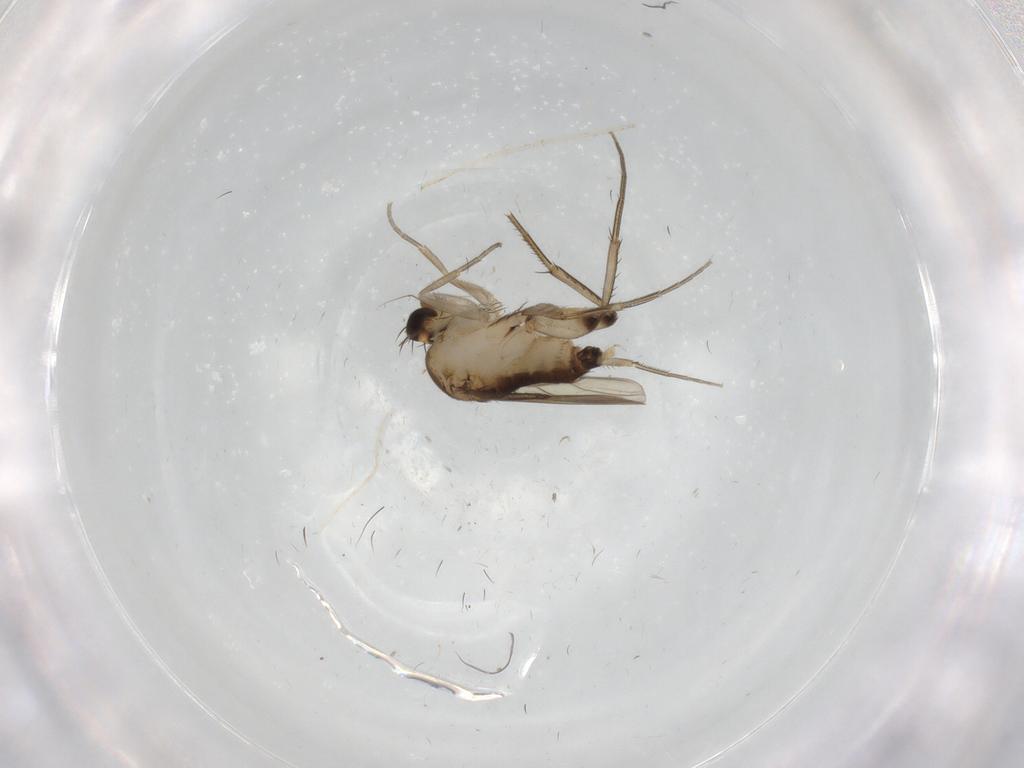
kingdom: Animalia
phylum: Arthropoda
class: Insecta
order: Diptera
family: Phoridae
